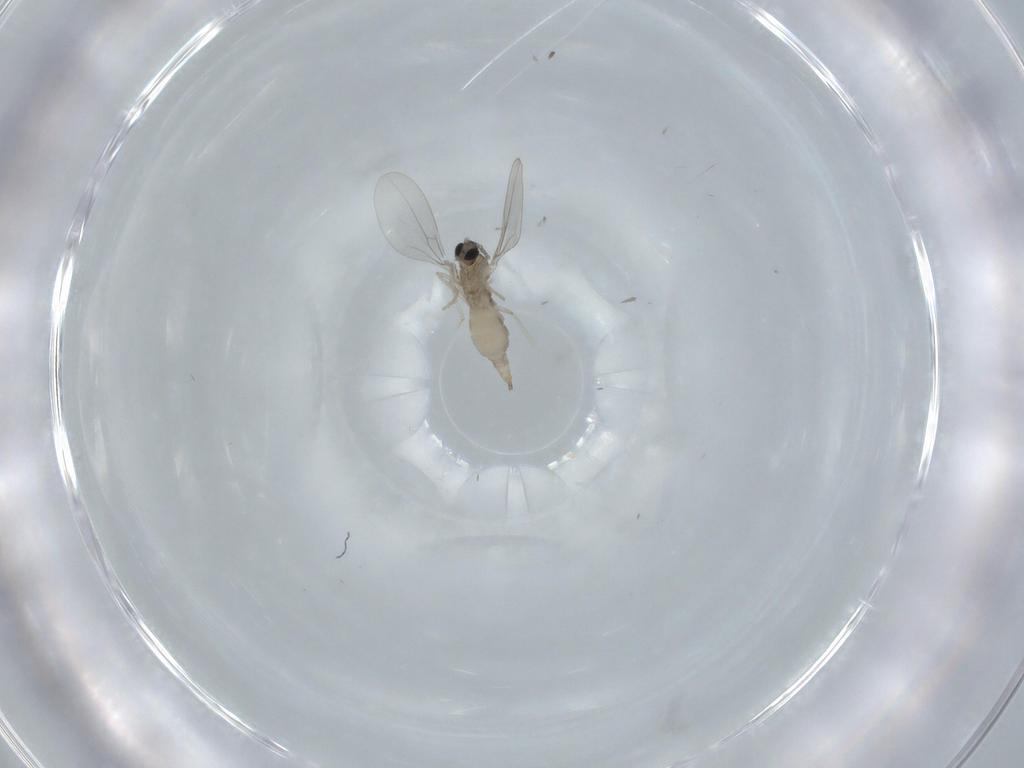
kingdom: Animalia
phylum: Arthropoda
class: Insecta
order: Diptera
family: Cecidomyiidae
